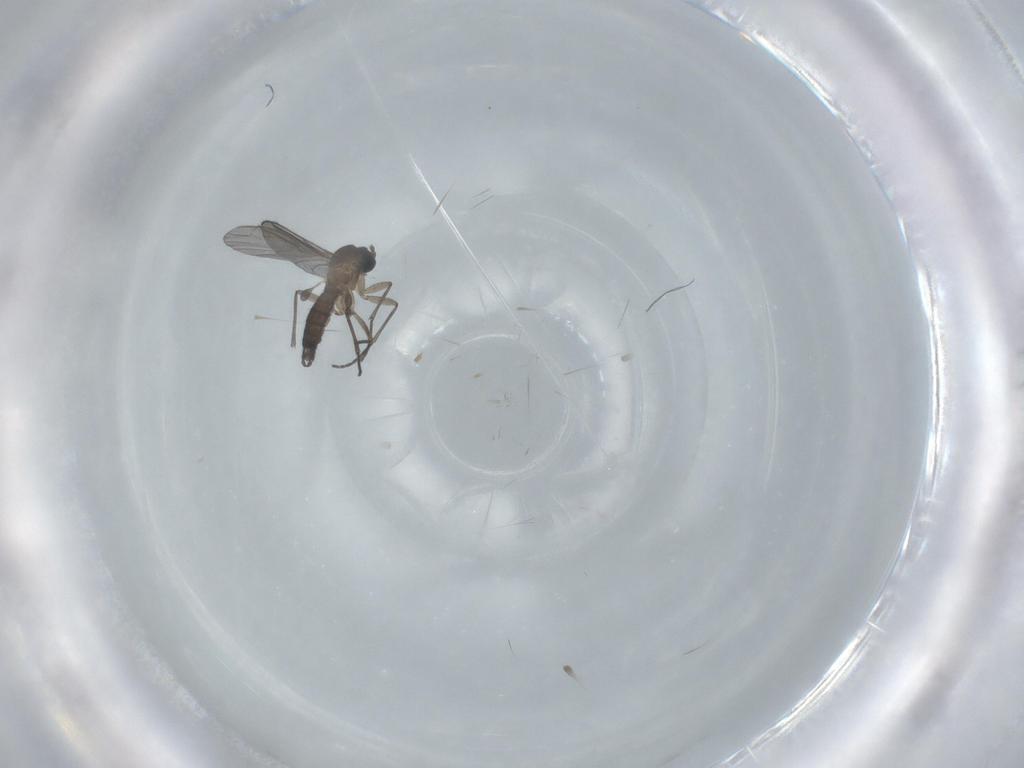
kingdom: Animalia
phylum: Arthropoda
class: Insecta
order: Diptera
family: Sciaridae
